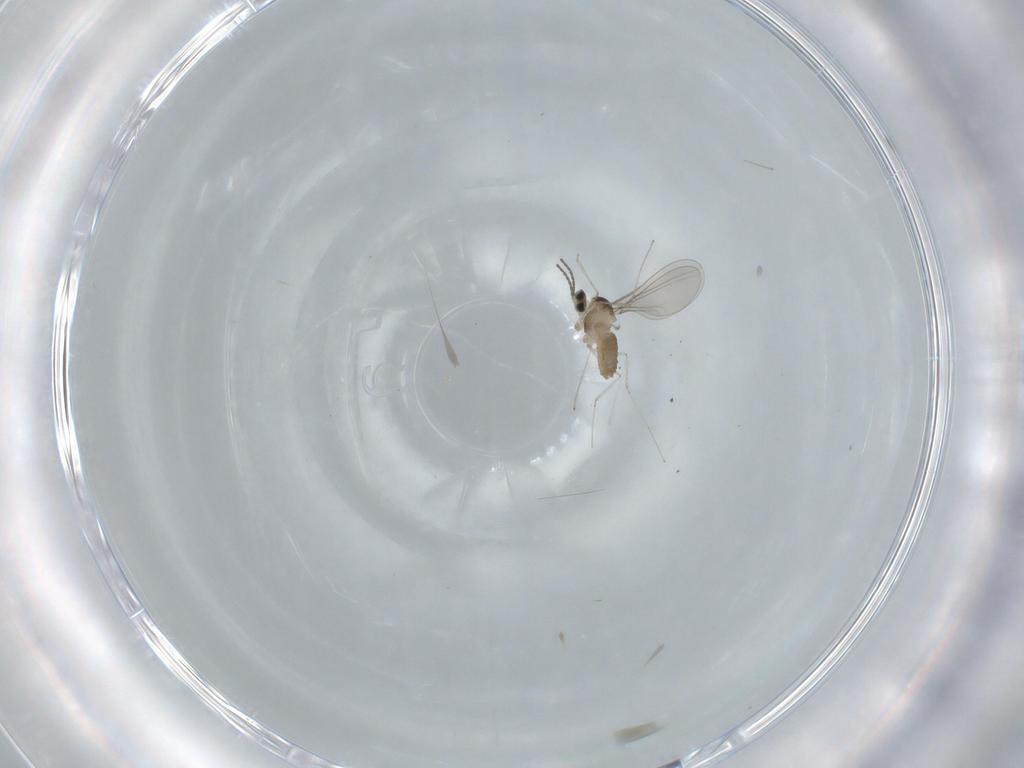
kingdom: Animalia
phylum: Arthropoda
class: Insecta
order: Diptera
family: Cecidomyiidae
